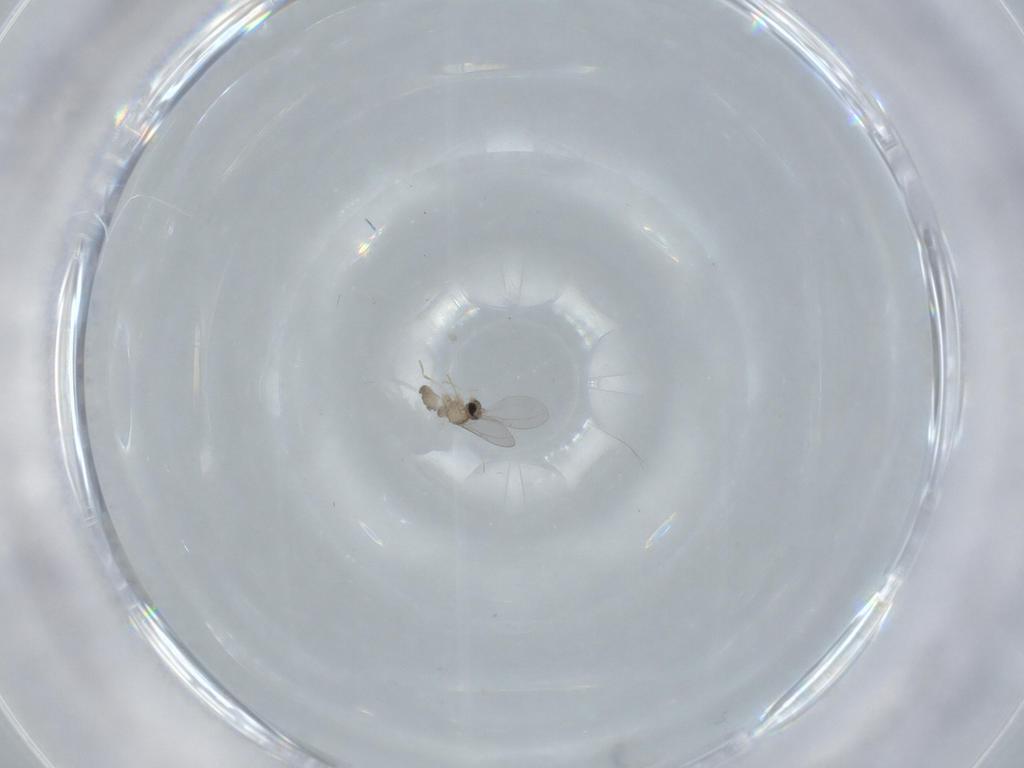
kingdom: Animalia
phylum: Arthropoda
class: Insecta
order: Diptera
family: Cecidomyiidae
